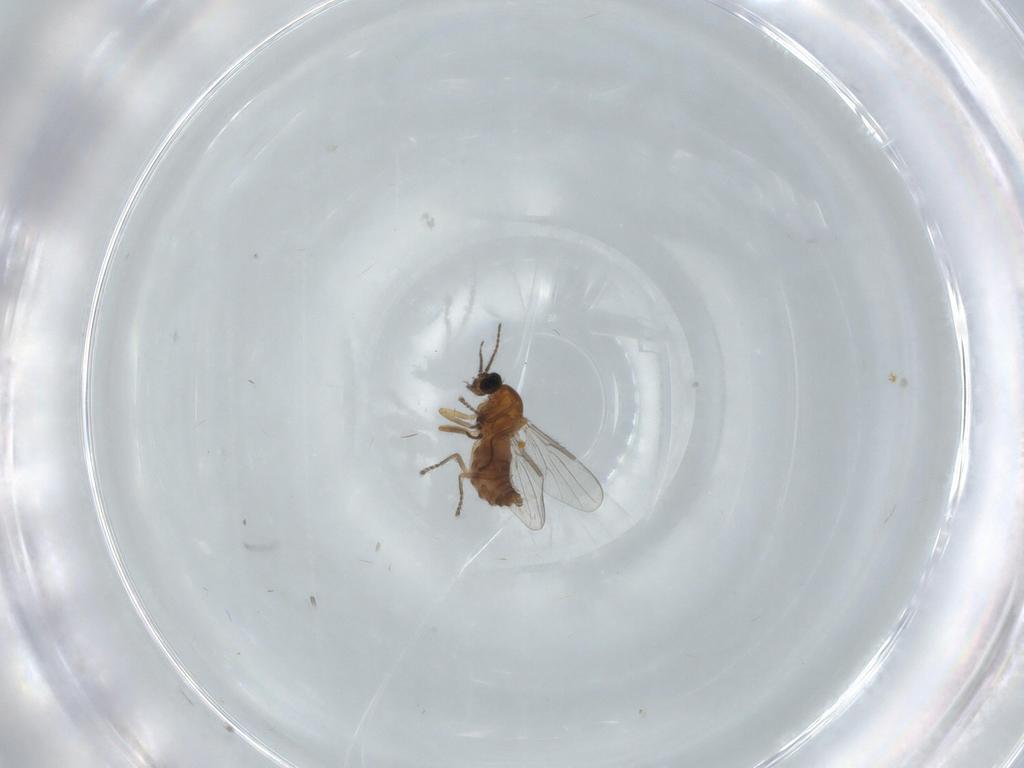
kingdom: Animalia
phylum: Arthropoda
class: Insecta
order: Diptera
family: Ceratopogonidae
